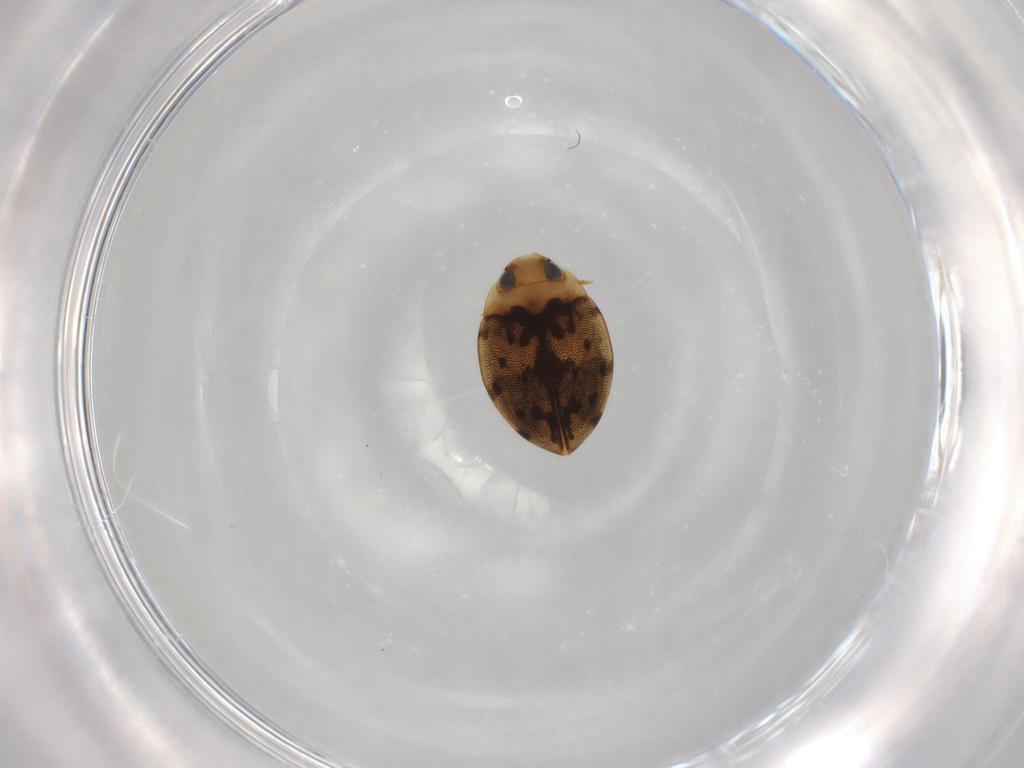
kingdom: Animalia
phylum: Arthropoda
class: Insecta
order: Coleoptera
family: Dytiscidae
